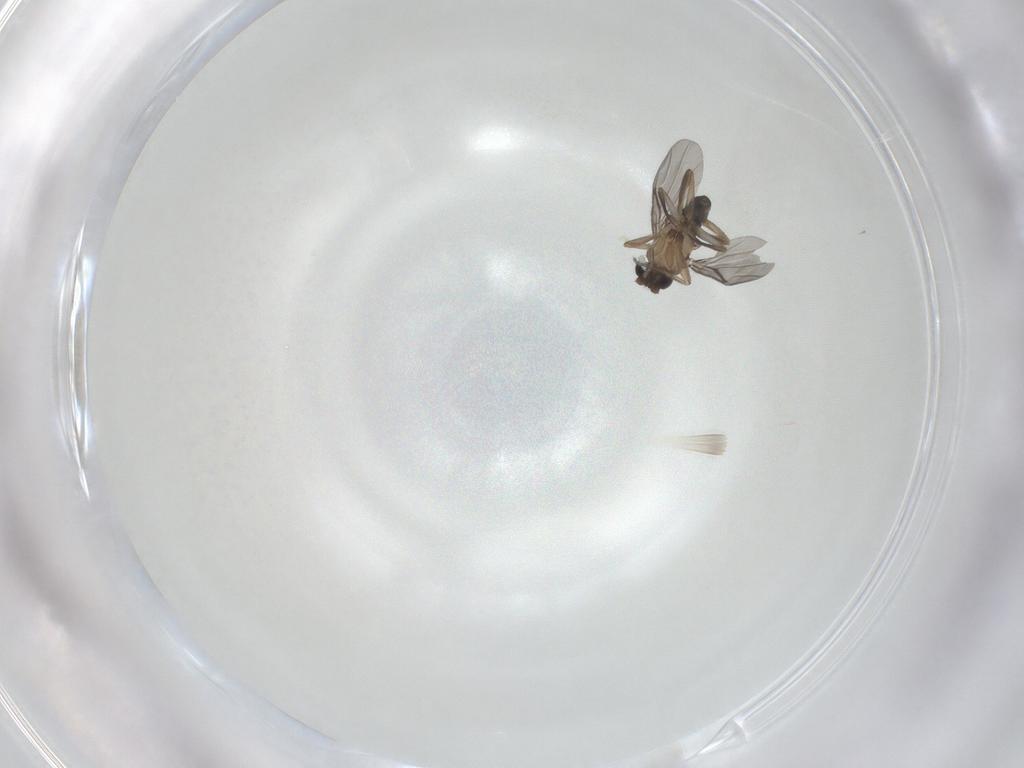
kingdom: Animalia
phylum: Arthropoda
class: Insecta
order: Diptera
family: Phoridae
